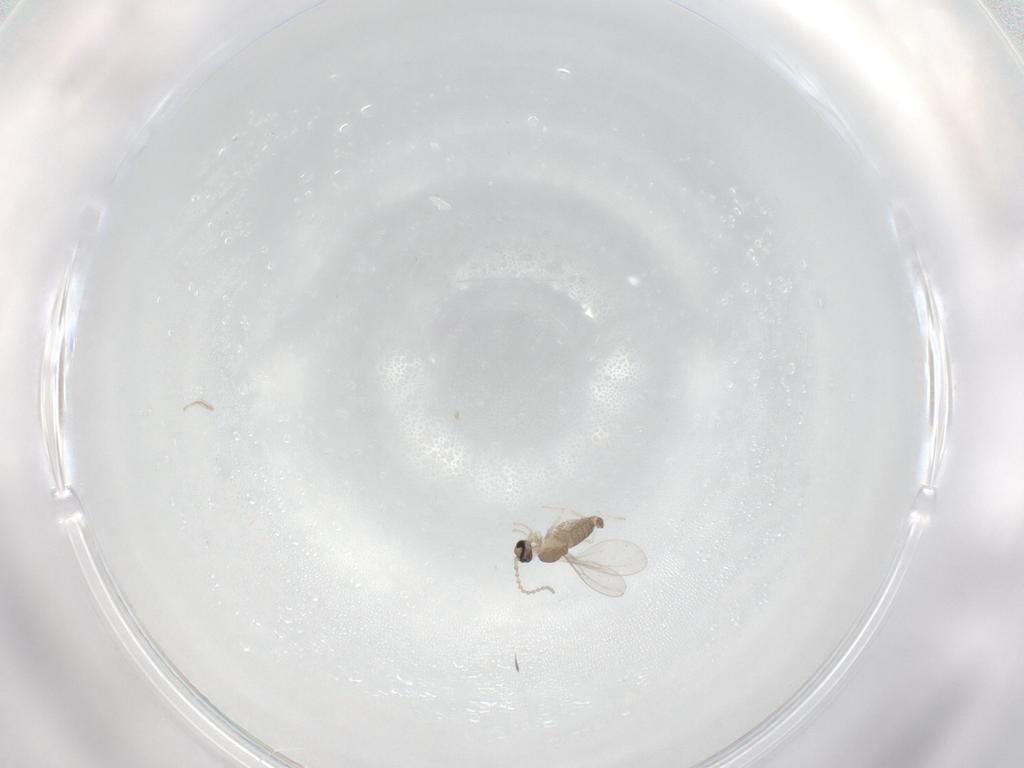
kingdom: Animalia
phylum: Arthropoda
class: Insecta
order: Diptera
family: Cecidomyiidae
